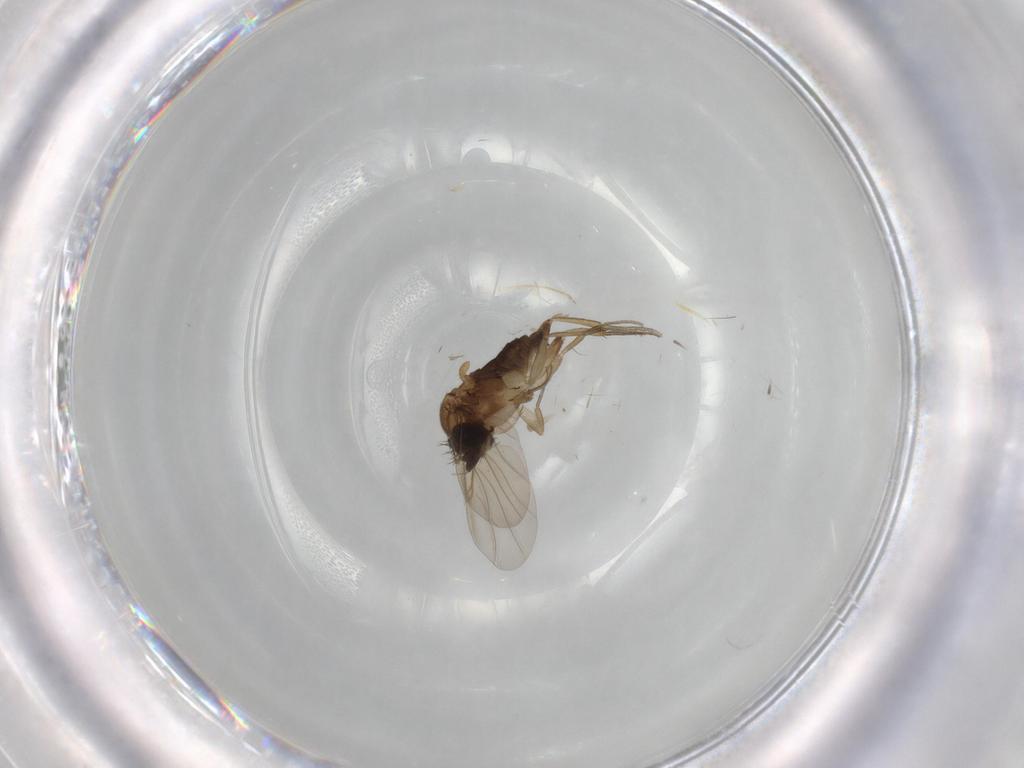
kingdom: Animalia
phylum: Arthropoda
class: Insecta
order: Diptera
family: Phoridae
